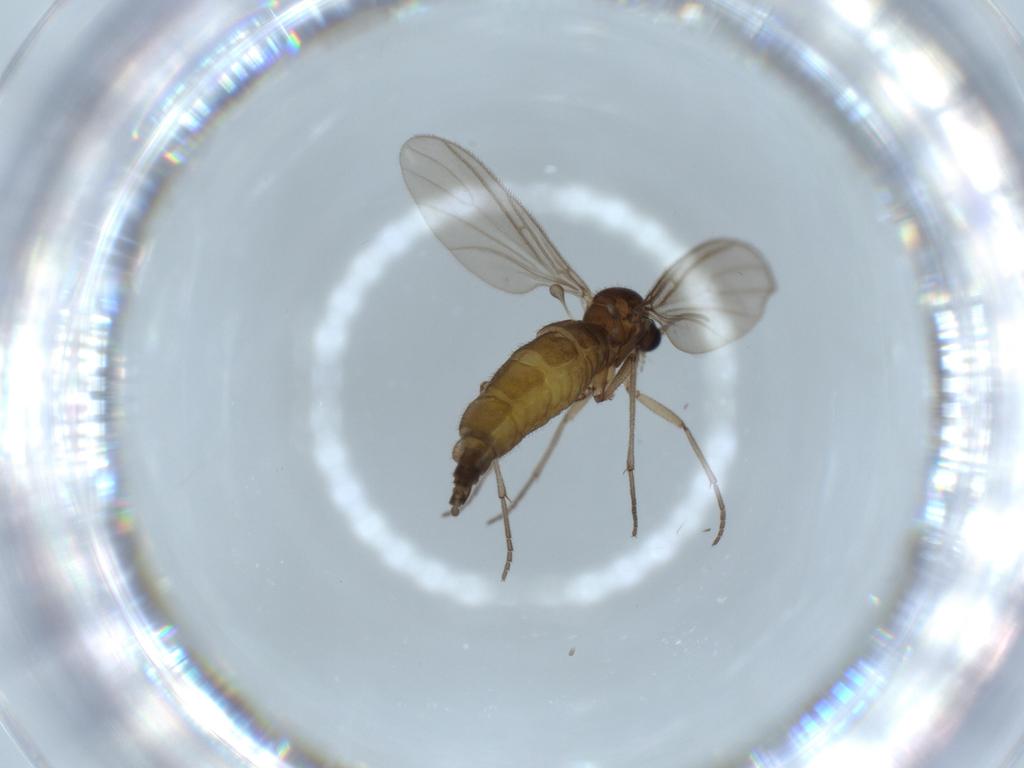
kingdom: Animalia
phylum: Arthropoda
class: Insecta
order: Diptera
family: Sciaridae
